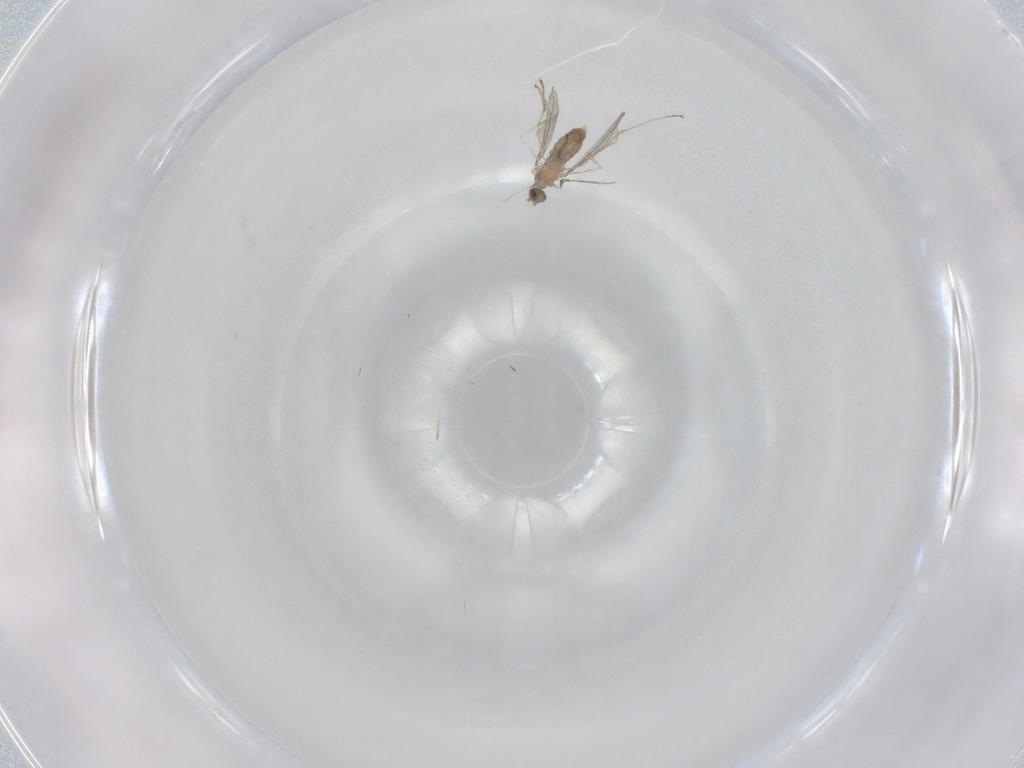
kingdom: Animalia
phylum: Arthropoda
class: Insecta
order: Diptera
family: Cecidomyiidae
